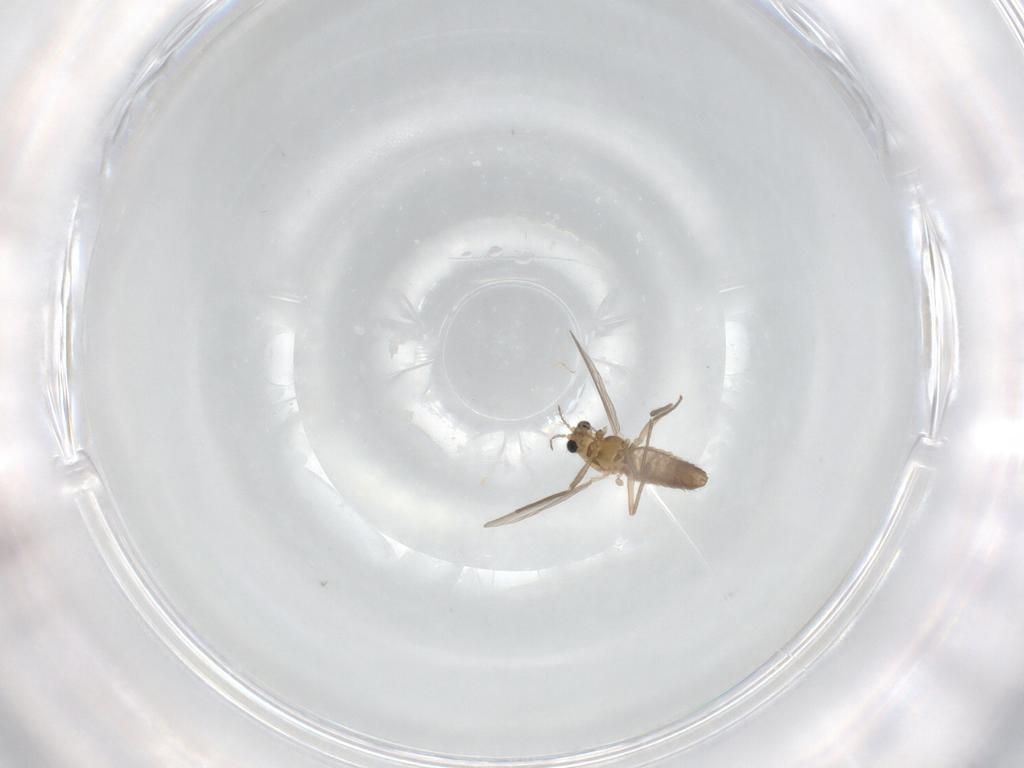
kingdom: Animalia
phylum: Arthropoda
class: Insecta
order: Diptera
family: Chironomidae
